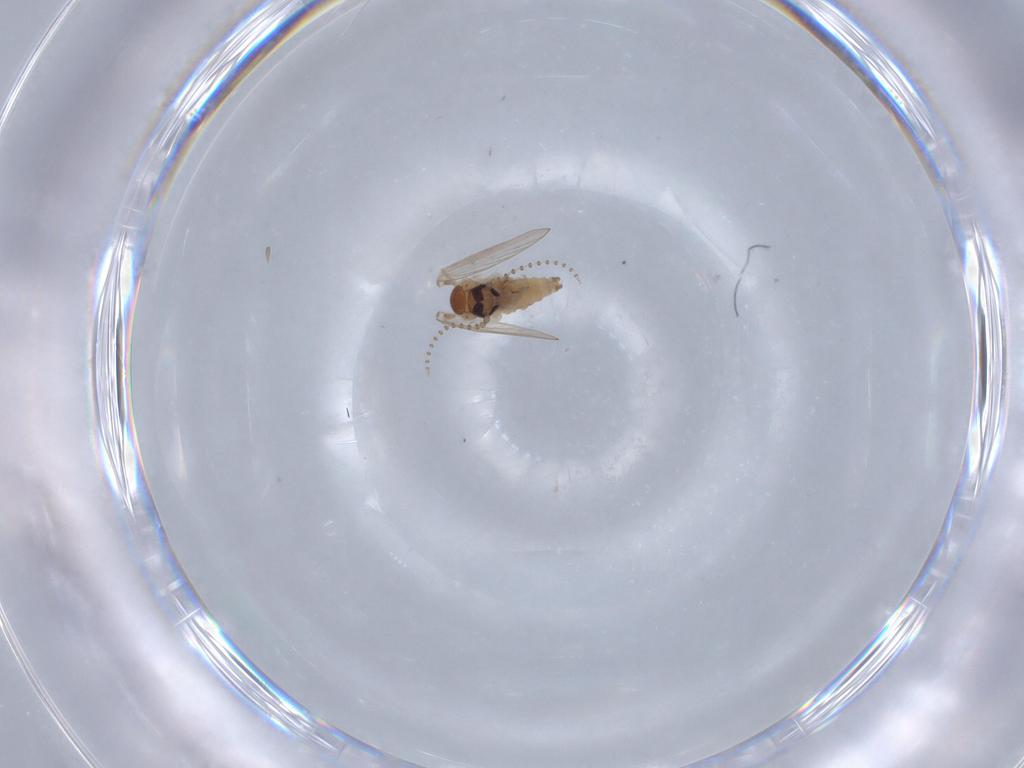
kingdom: Animalia
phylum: Arthropoda
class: Insecta
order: Diptera
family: Psychodidae
